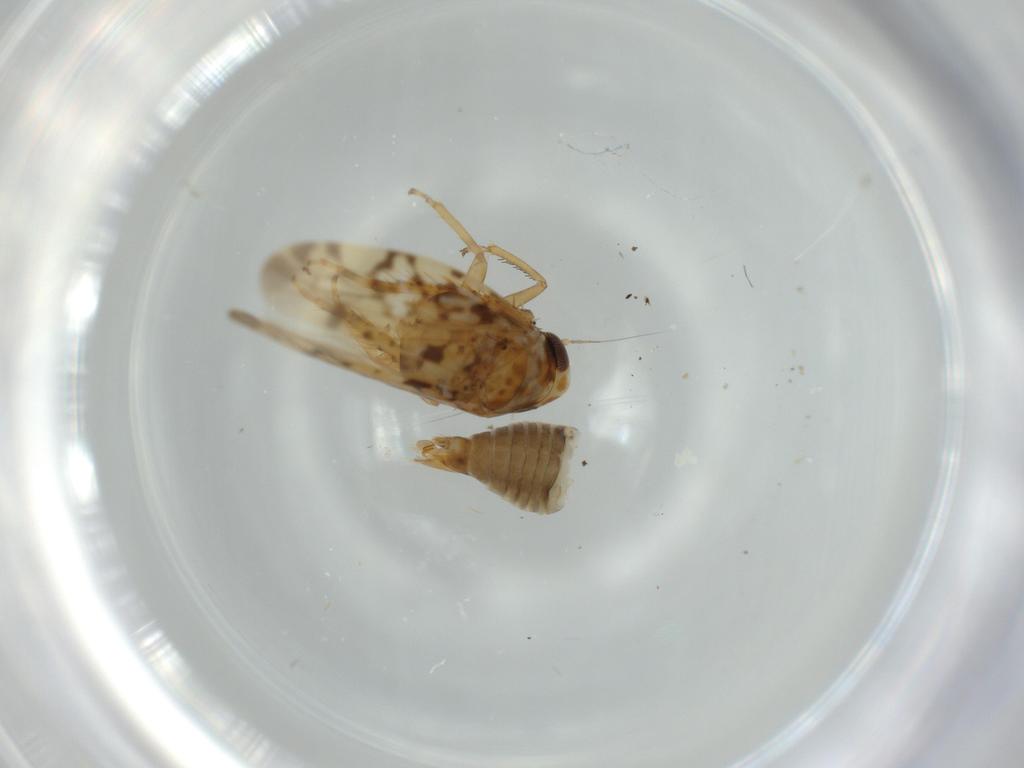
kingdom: Animalia
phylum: Arthropoda
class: Insecta
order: Hemiptera
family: Cicadellidae
